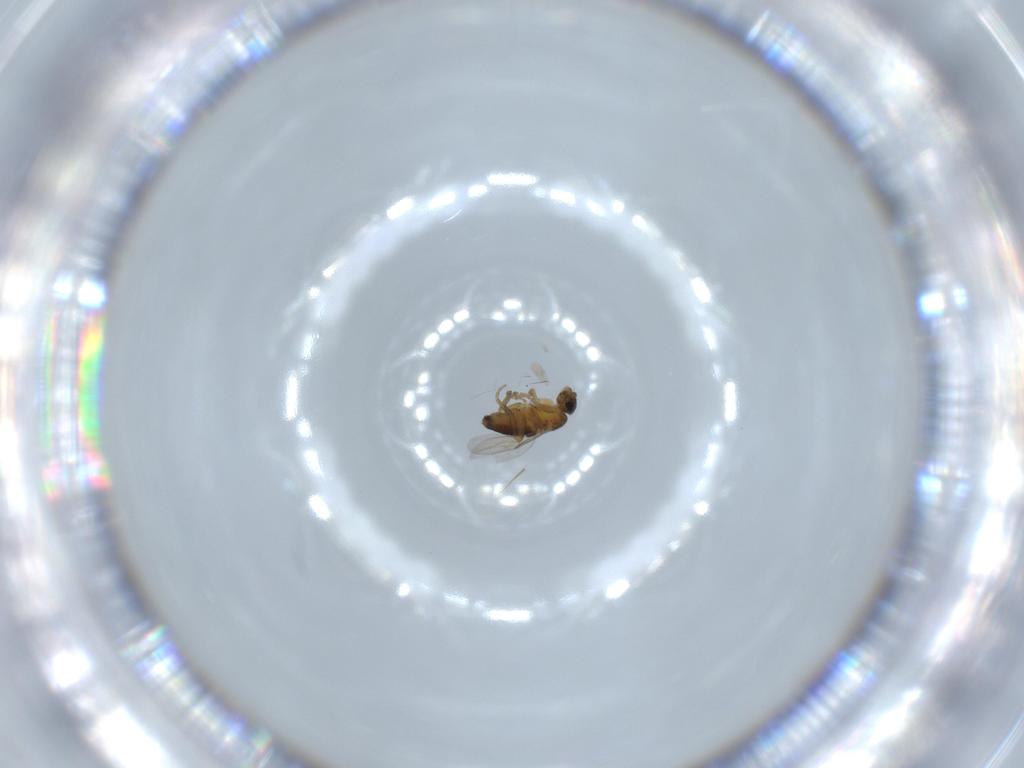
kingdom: Animalia
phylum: Arthropoda
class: Insecta
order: Diptera
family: Phoridae
